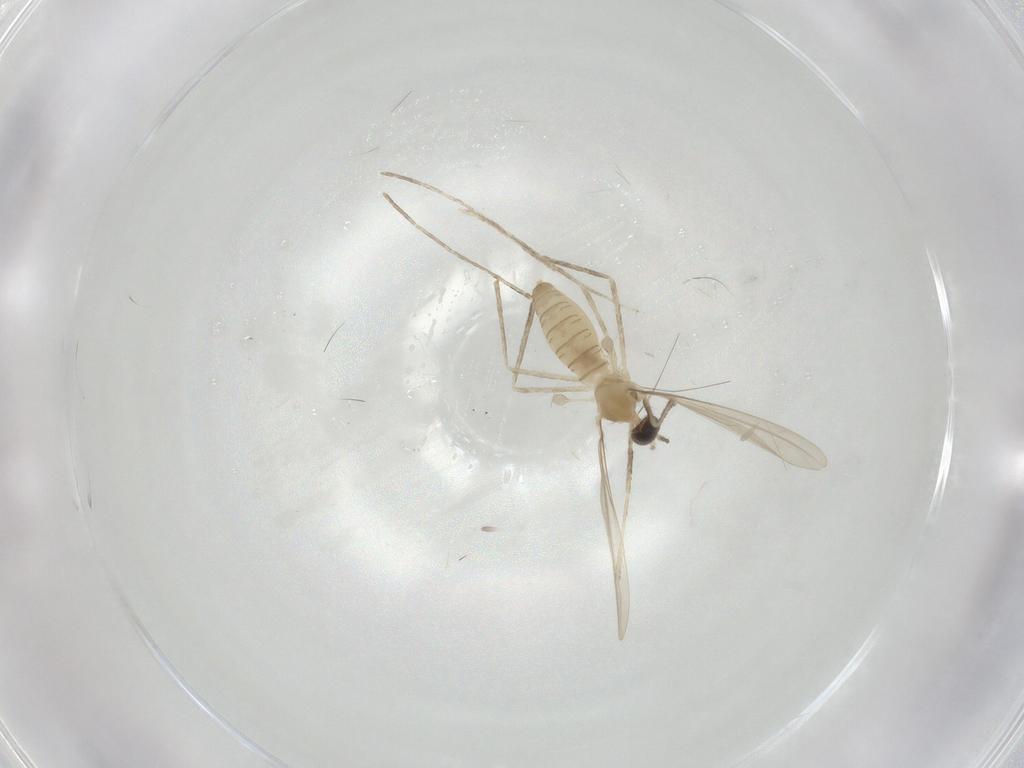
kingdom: Animalia
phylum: Arthropoda
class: Insecta
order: Diptera
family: Cecidomyiidae
